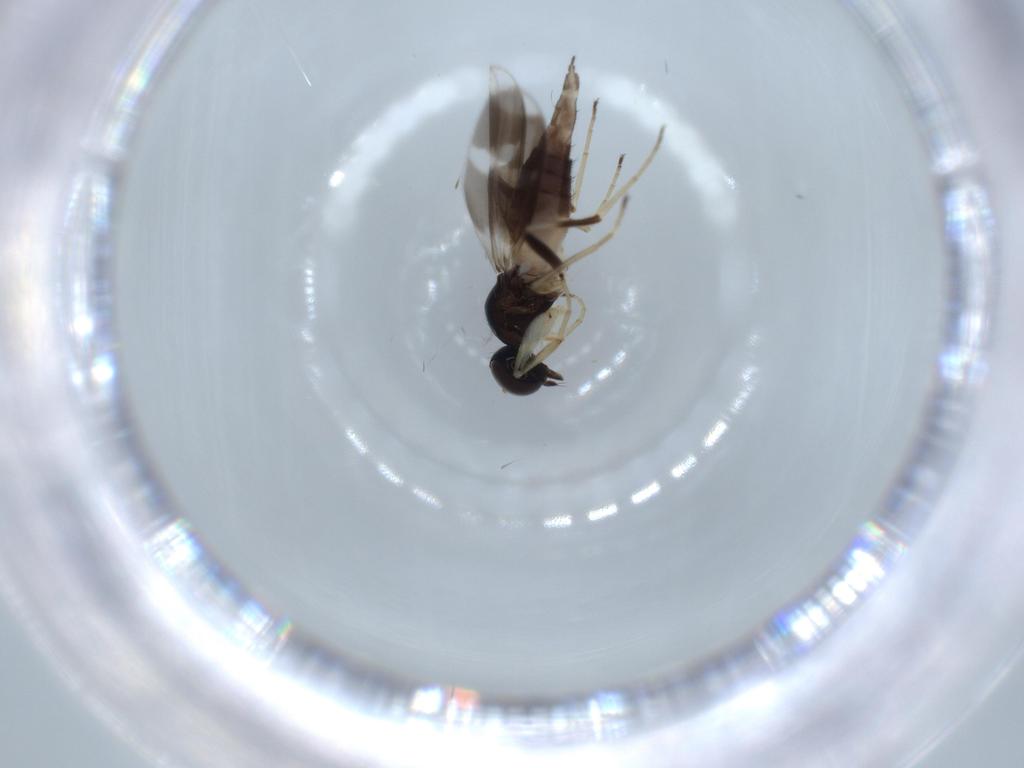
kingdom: Animalia
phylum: Arthropoda
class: Insecta
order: Diptera
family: Hybotidae
